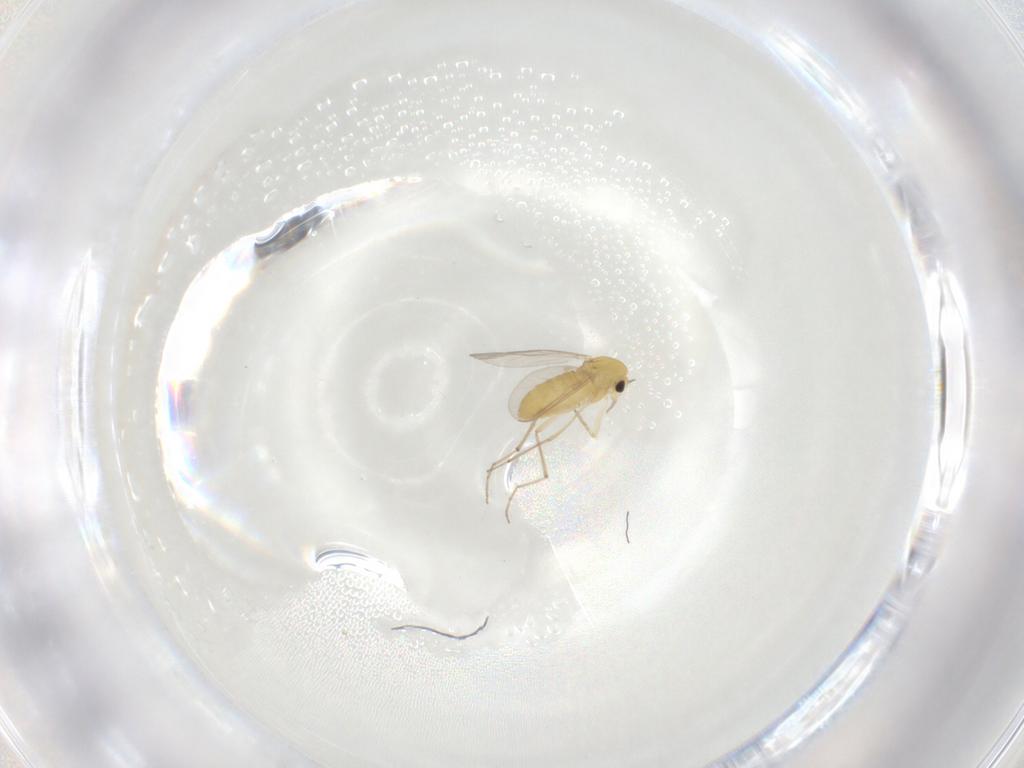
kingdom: Animalia
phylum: Arthropoda
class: Insecta
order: Diptera
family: Chironomidae
